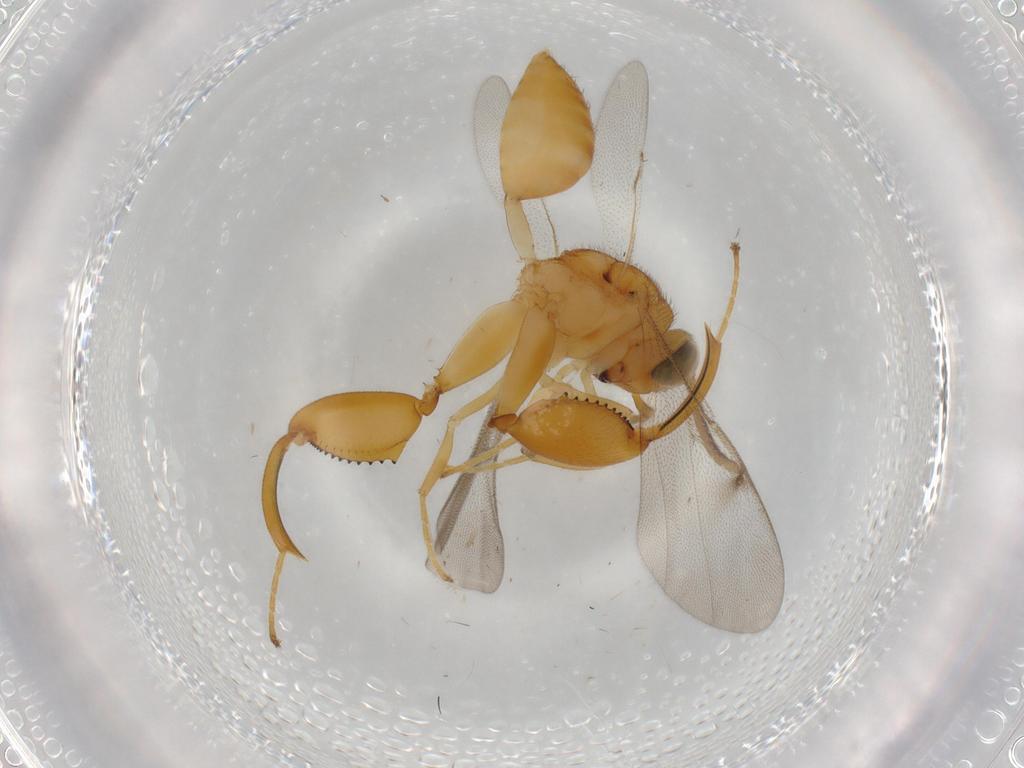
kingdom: Animalia
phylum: Arthropoda
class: Insecta
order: Hymenoptera
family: Chalcididae
